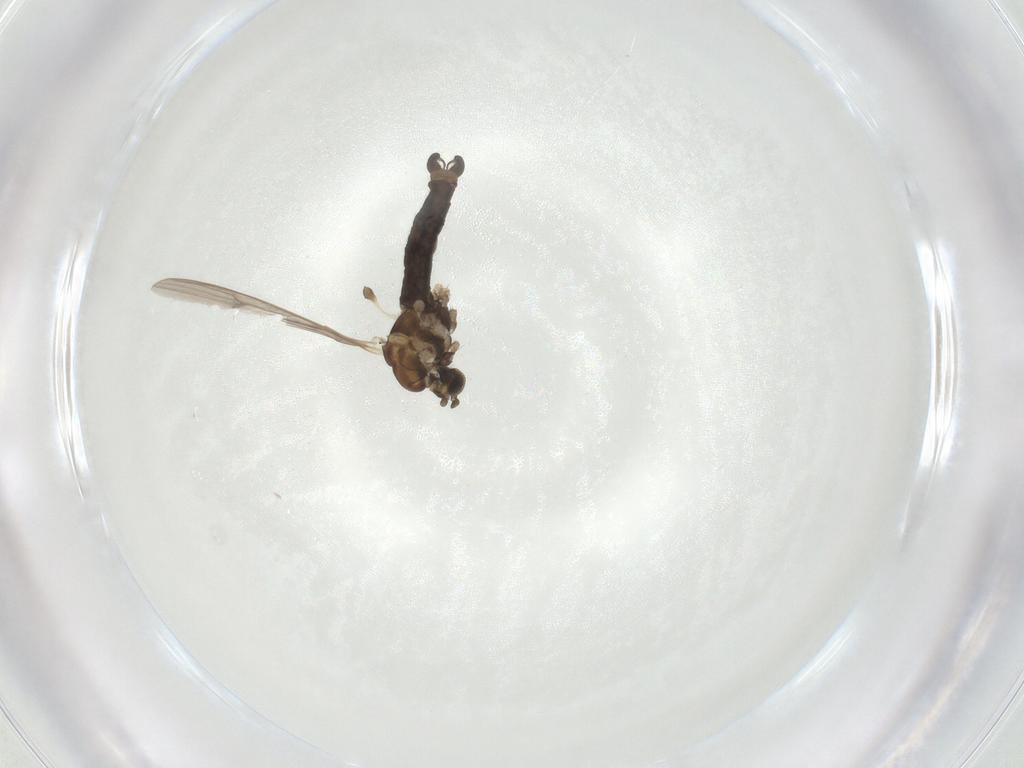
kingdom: Animalia
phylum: Arthropoda
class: Insecta
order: Diptera
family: Limoniidae
